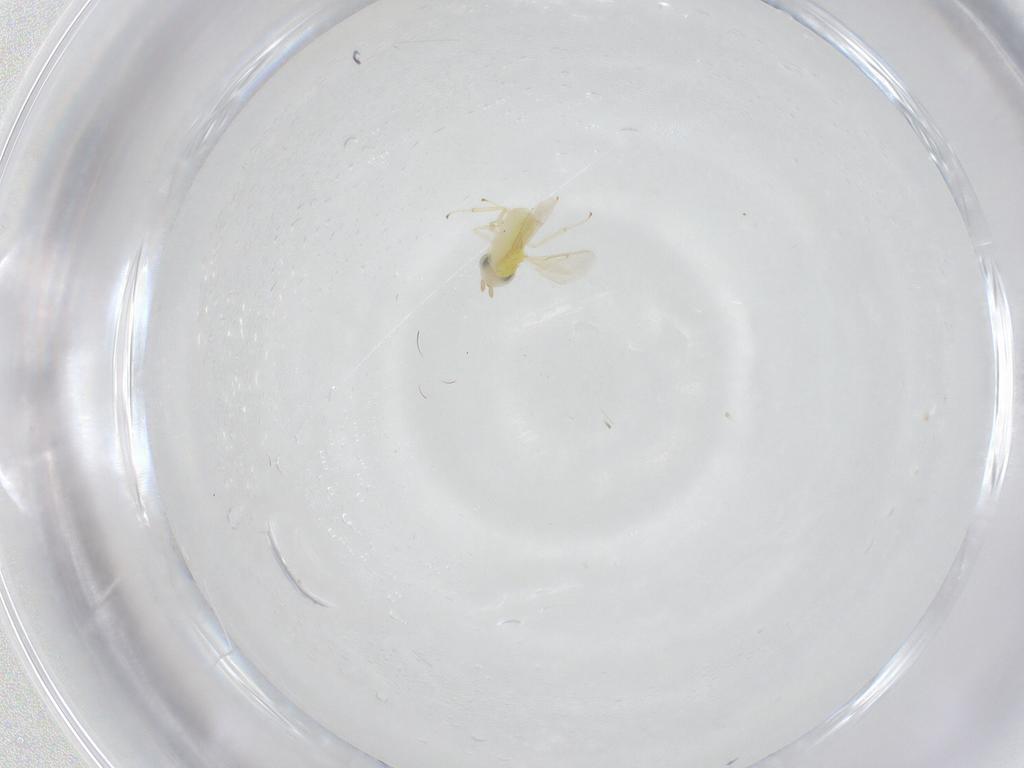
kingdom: Animalia
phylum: Arthropoda
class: Insecta
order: Hymenoptera
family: Aphelinidae
